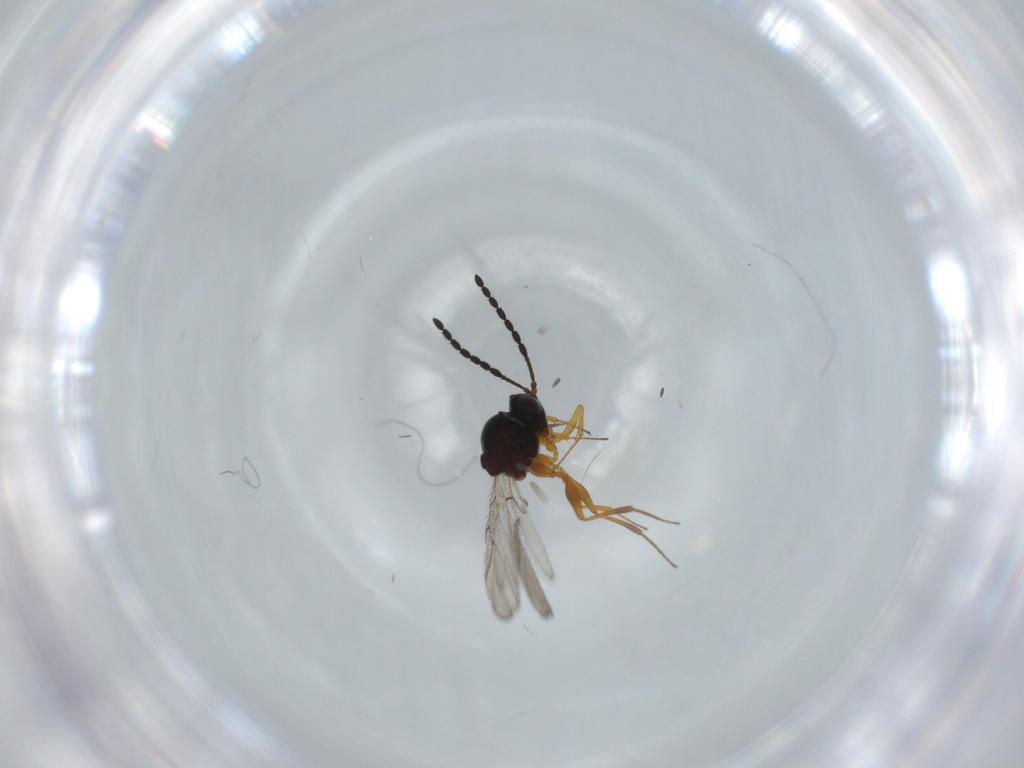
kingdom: Animalia
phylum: Arthropoda
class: Insecta
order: Hymenoptera
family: Figitidae
